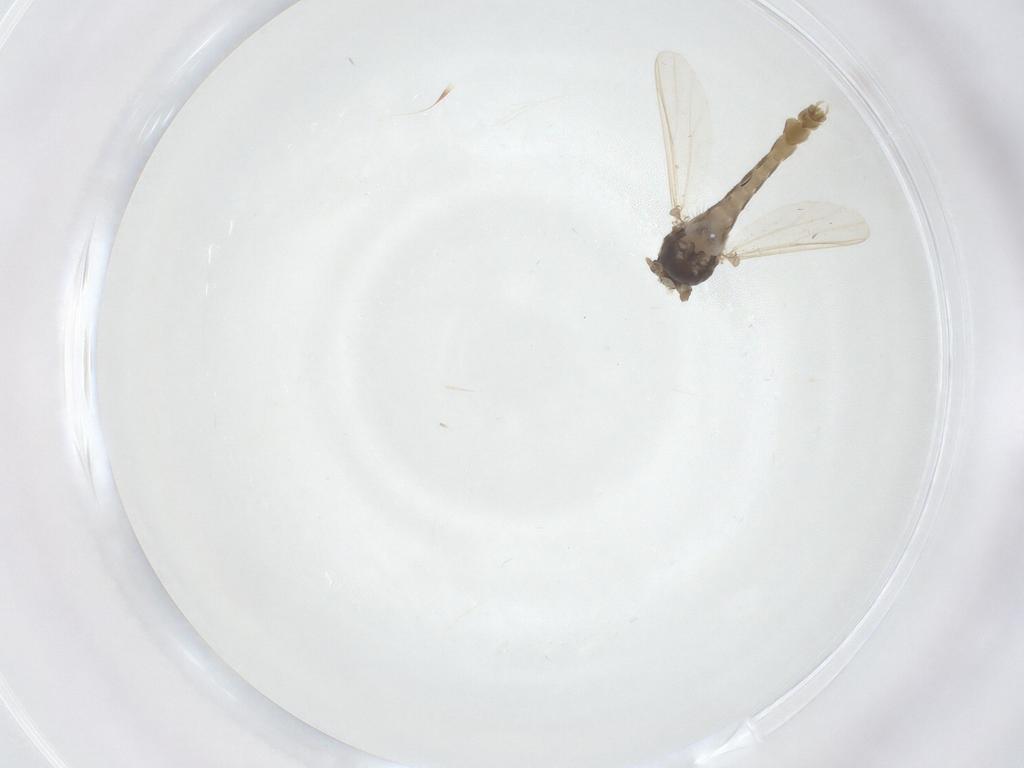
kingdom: Animalia
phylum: Arthropoda
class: Insecta
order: Diptera
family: Chironomidae
